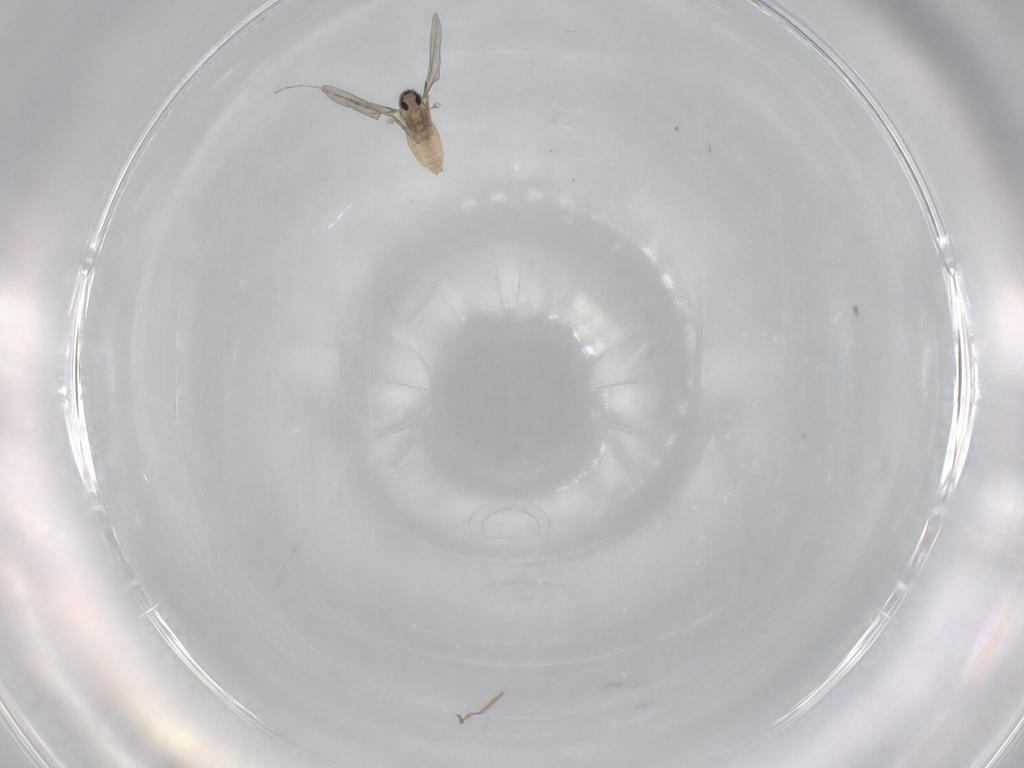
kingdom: Animalia
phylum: Arthropoda
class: Insecta
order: Diptera
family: Cecidomyiidae
